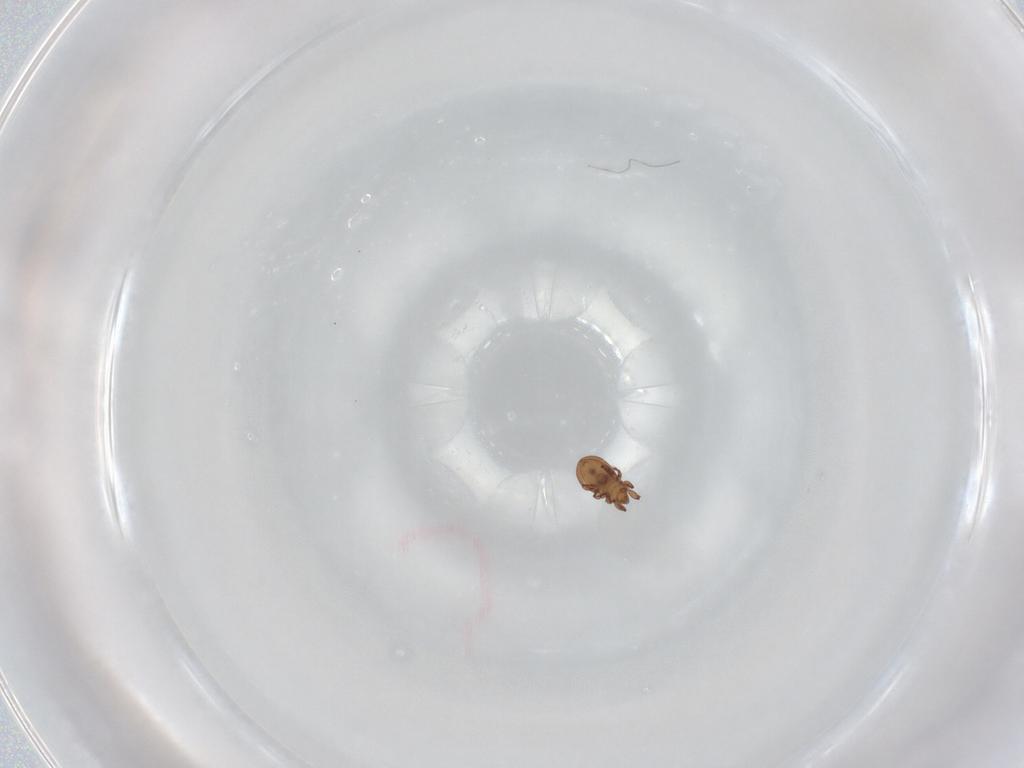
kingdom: Animalia
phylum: Arthropoda
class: Arachnida
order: Sarcoptiformes
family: Eremaeidae
